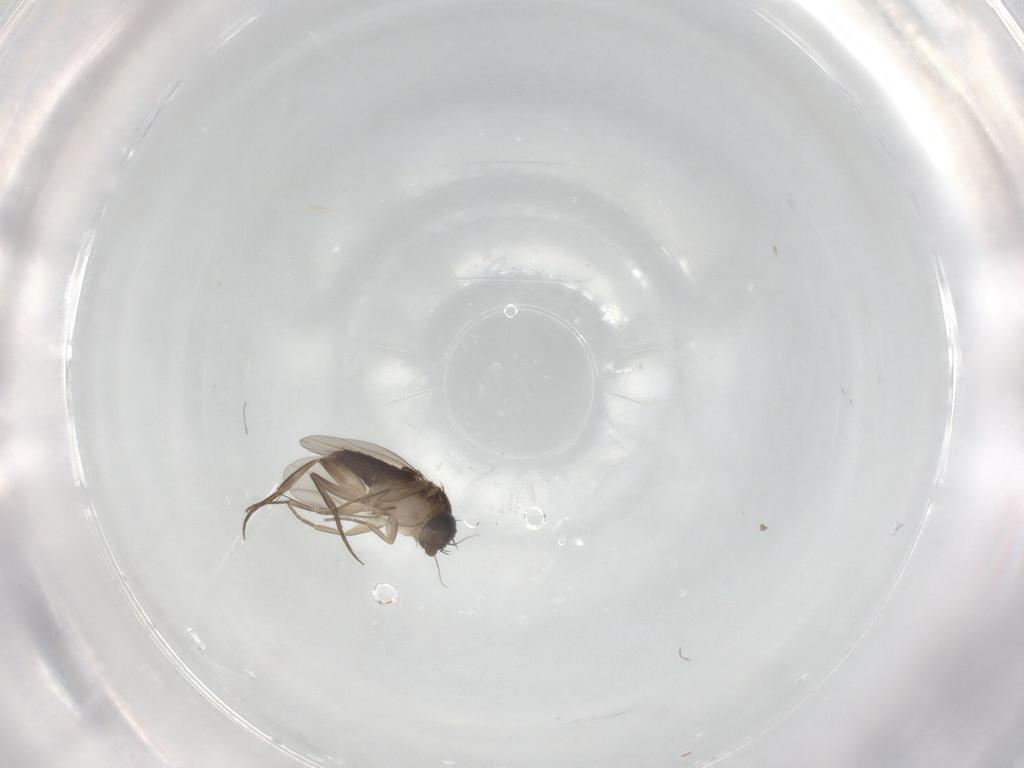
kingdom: Animalia
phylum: Arthropoda
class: Insecta
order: Diptera
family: Phoridae
